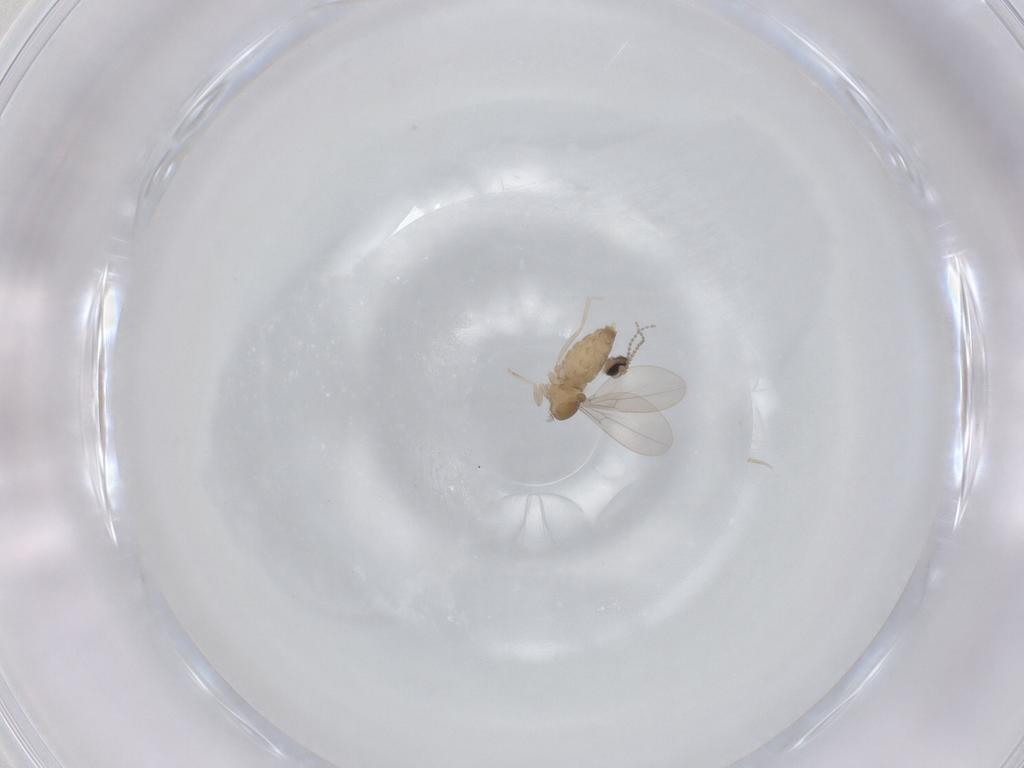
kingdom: Animalia
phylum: Arthropoda
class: Insecta
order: Diptera
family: Cecidomyiidae
